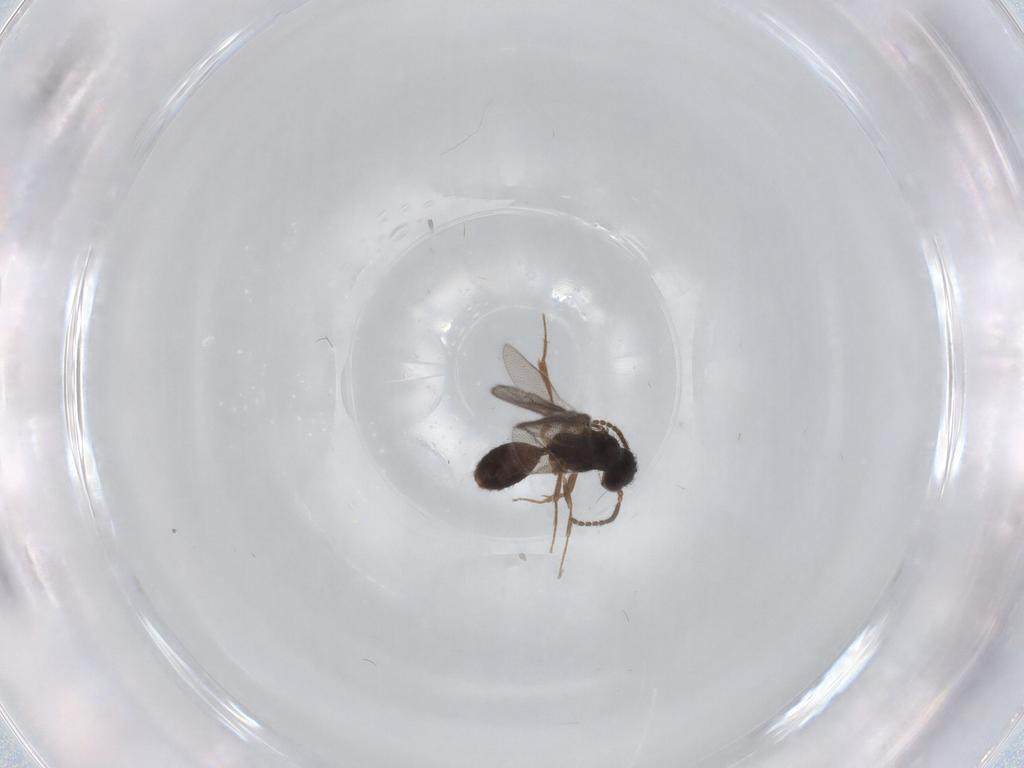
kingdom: Animalia
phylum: Arthropoda
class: Insecta
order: Hymenoptera
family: Bethylidae
